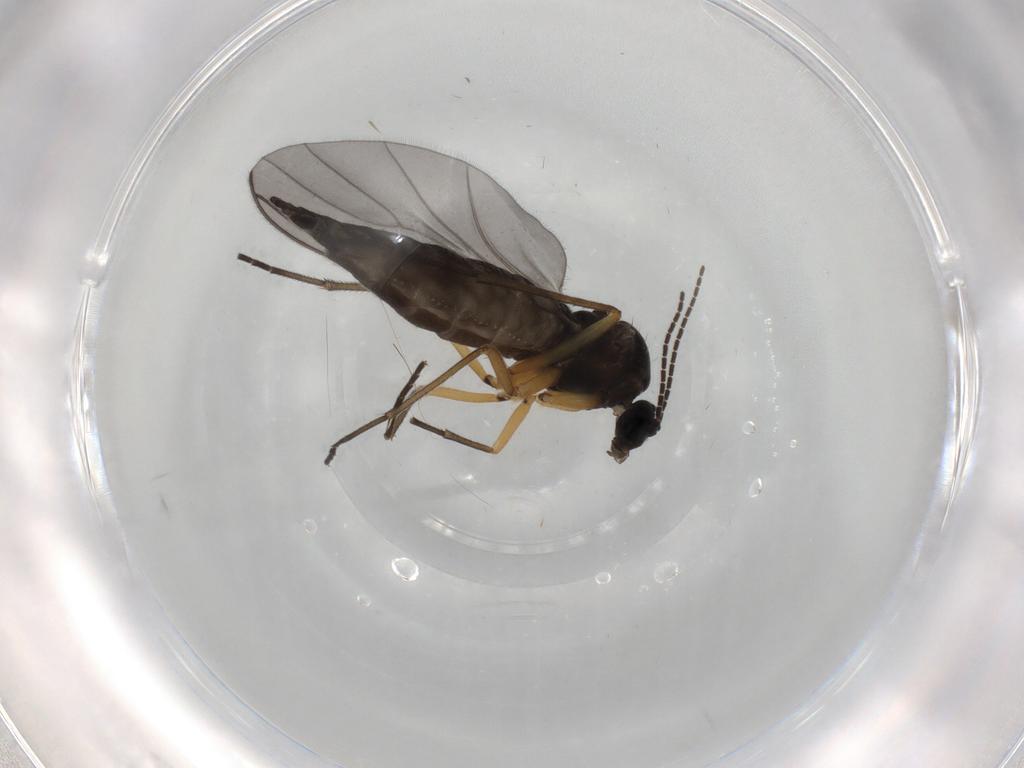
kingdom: Animalia
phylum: Arthropoda
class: Insecta
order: Diptera
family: Sciaridae
